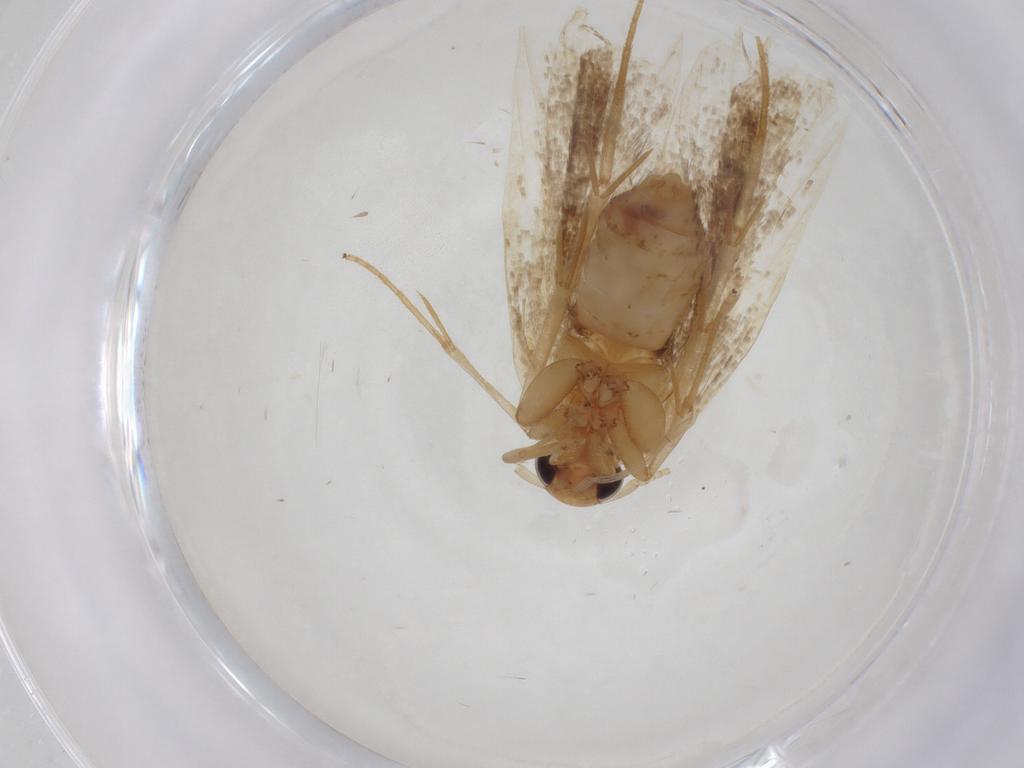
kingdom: Animalia
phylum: Arthropoda
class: Insecta
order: Lepidoptera
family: Lecithoceridae
